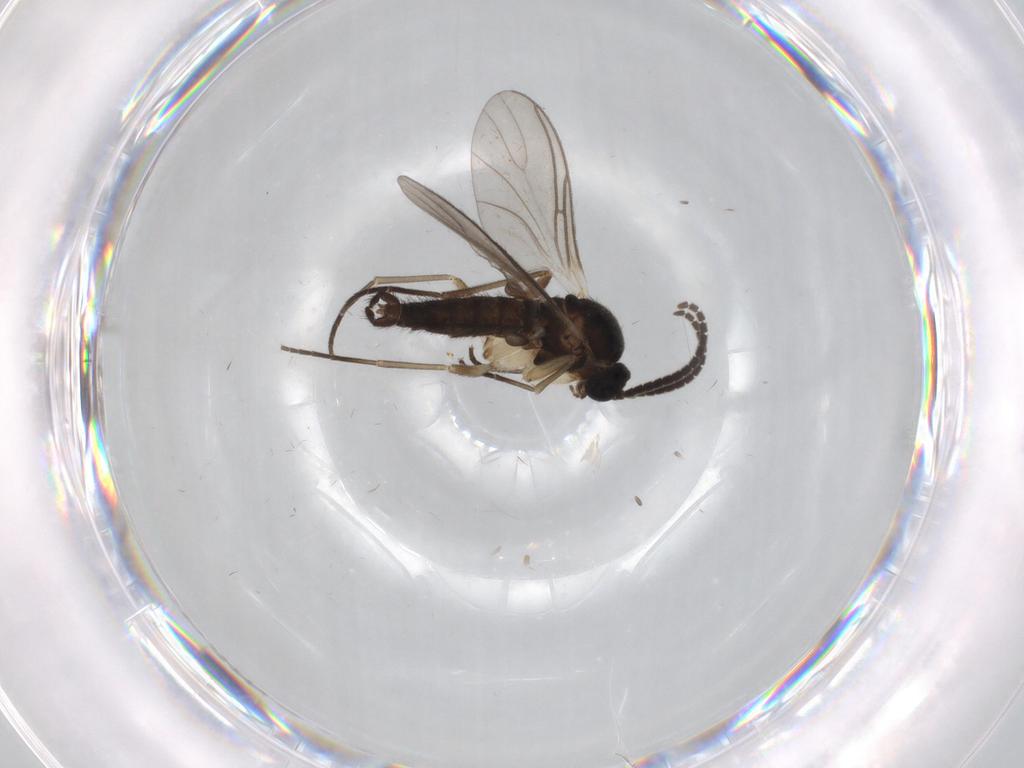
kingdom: Animalia
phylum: Arthropoda
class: Insecta
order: Diptera
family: Sciaridae
